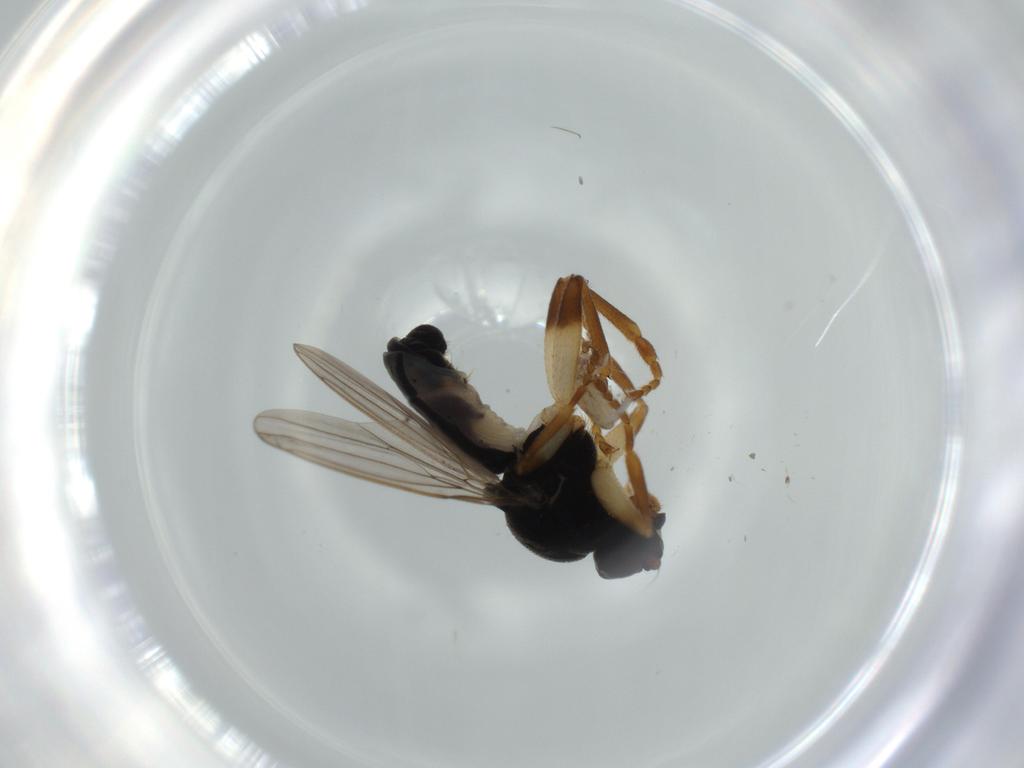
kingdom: Animalia
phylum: Arthropoda
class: Insecta
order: Diptera
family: Sphaeroceridae
